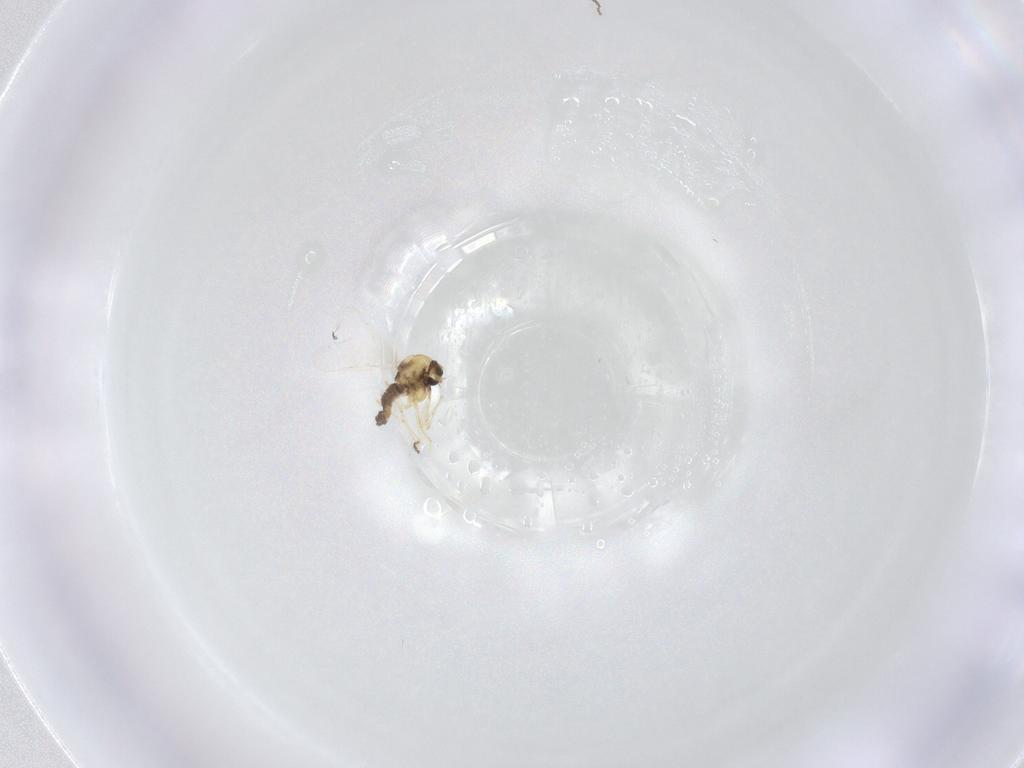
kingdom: Animalia
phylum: Arthropoda
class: Insecta
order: Diptera
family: Chironomidae
